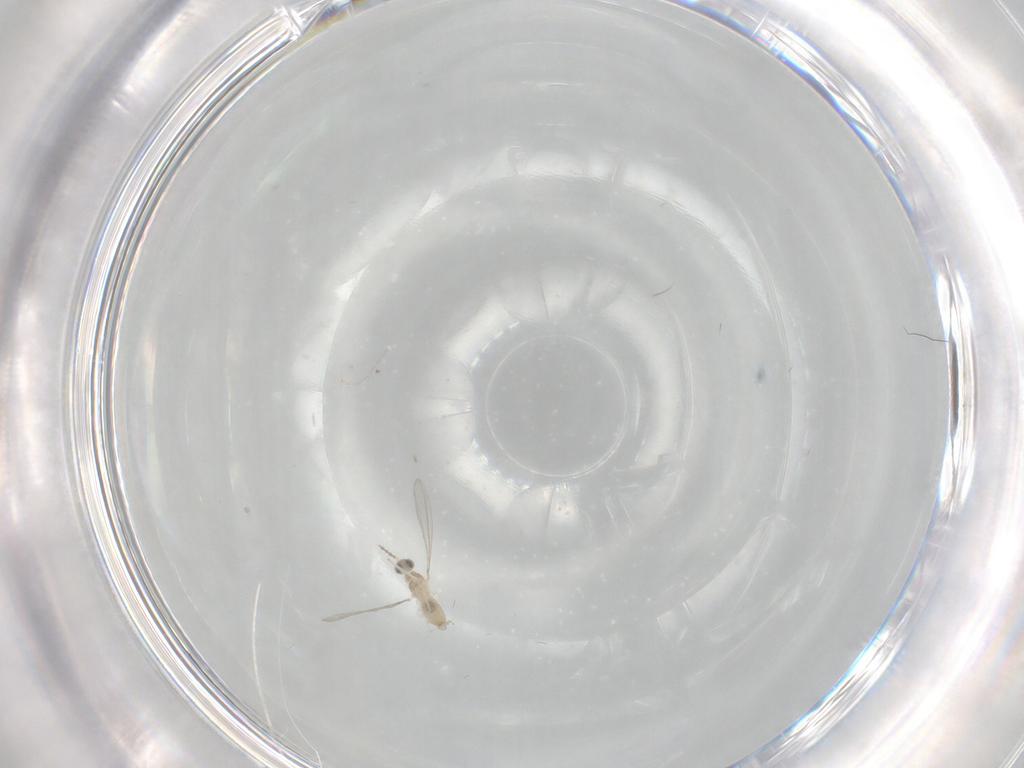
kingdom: Animalia
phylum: Arthropoda
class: Insecta
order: Diptera
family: Cecidomyiidae
